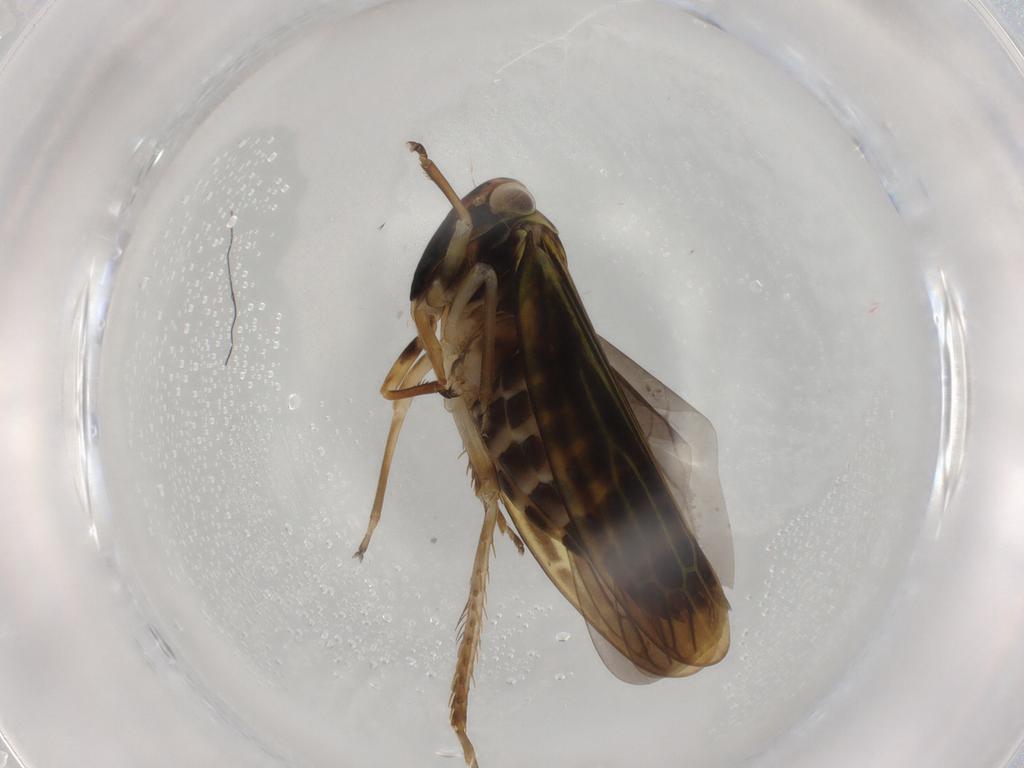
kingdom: Animalia
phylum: Arthropoda
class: Insecta
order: Hemiptera
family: Cicadellidae
